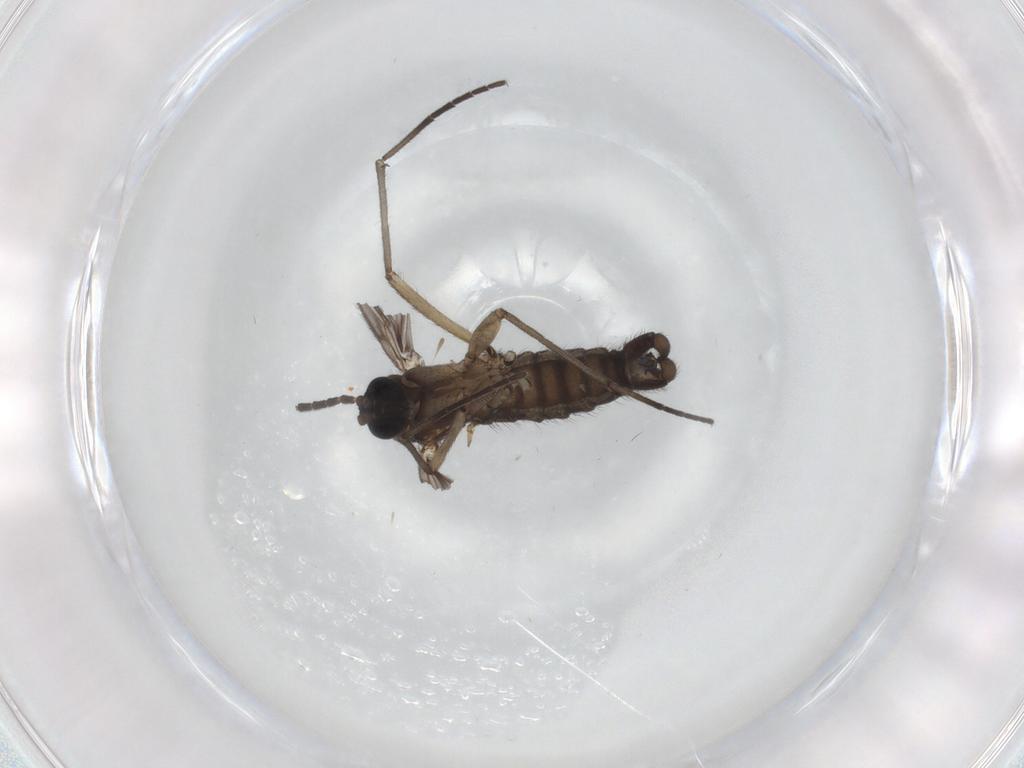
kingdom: Animalia
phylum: Arthropoda
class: Insecta
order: Diptera
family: Sciaridae
